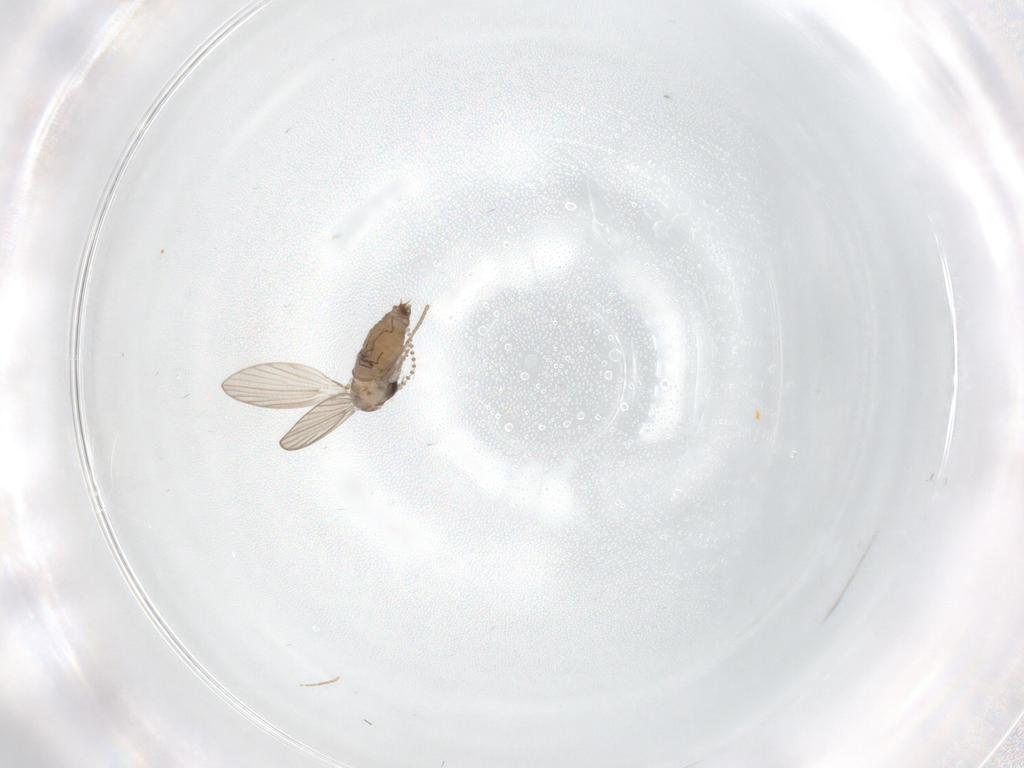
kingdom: Animalia
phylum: Arthropoda
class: Insecta
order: Diptera
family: Psychodidae
